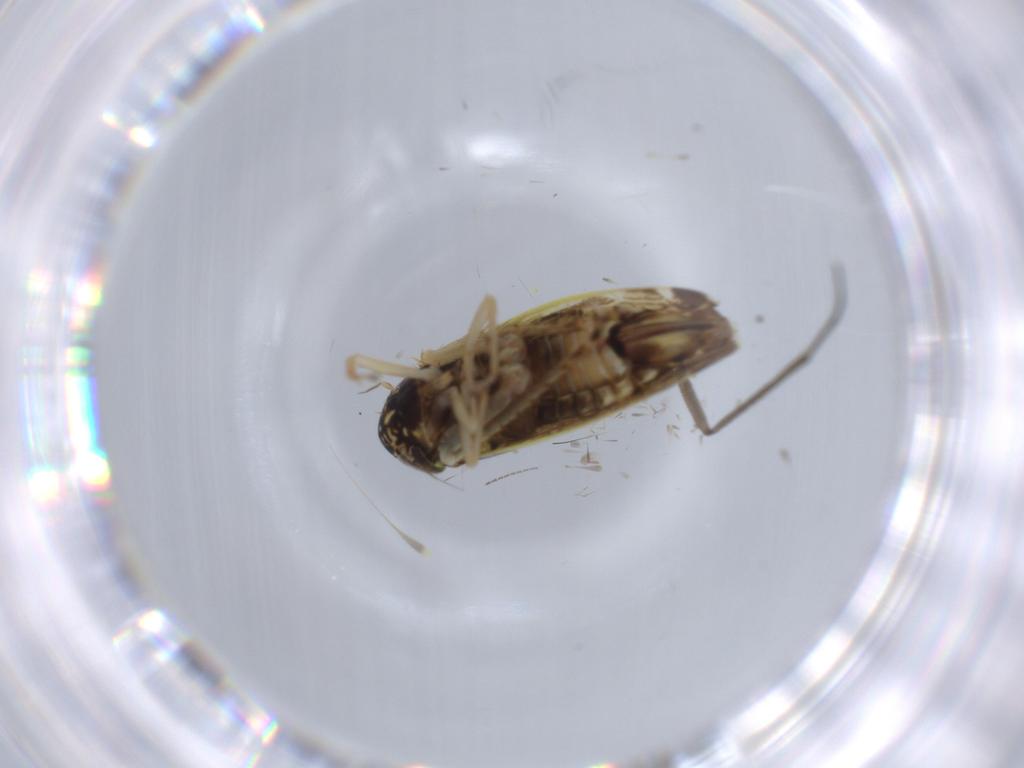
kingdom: Animalia
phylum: Arthropoda
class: Insecta
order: Hemiptera
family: Cicadellidae
